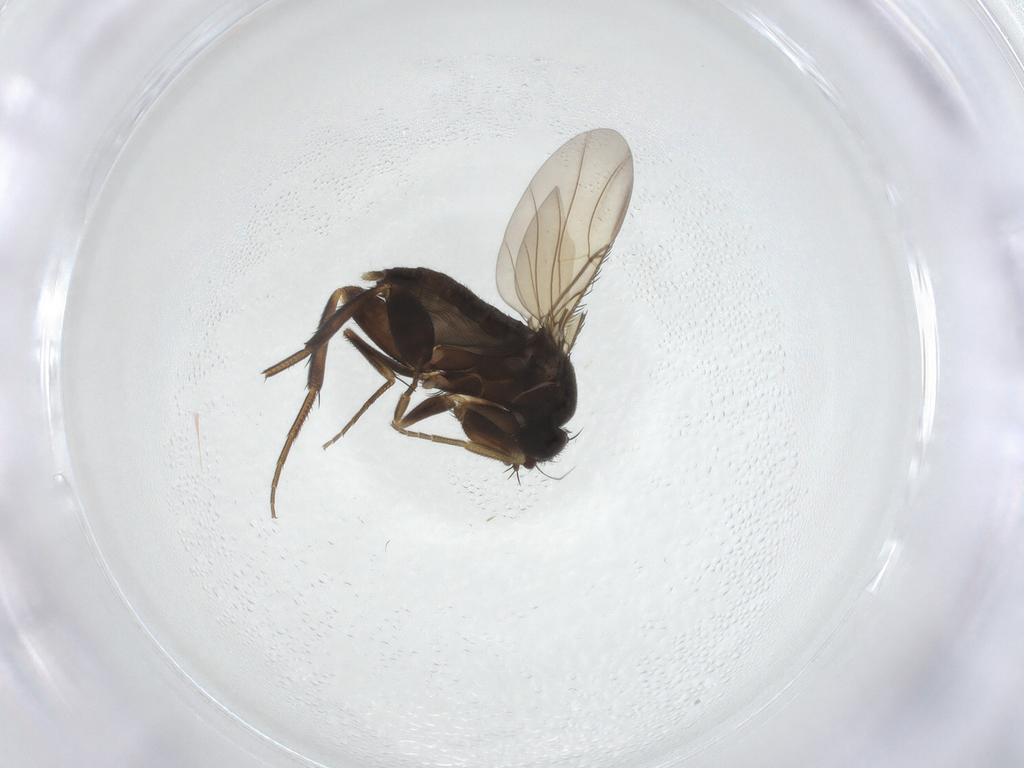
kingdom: Animalia
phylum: Arthropoda
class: Insecta
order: Diptera
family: Phoridae
